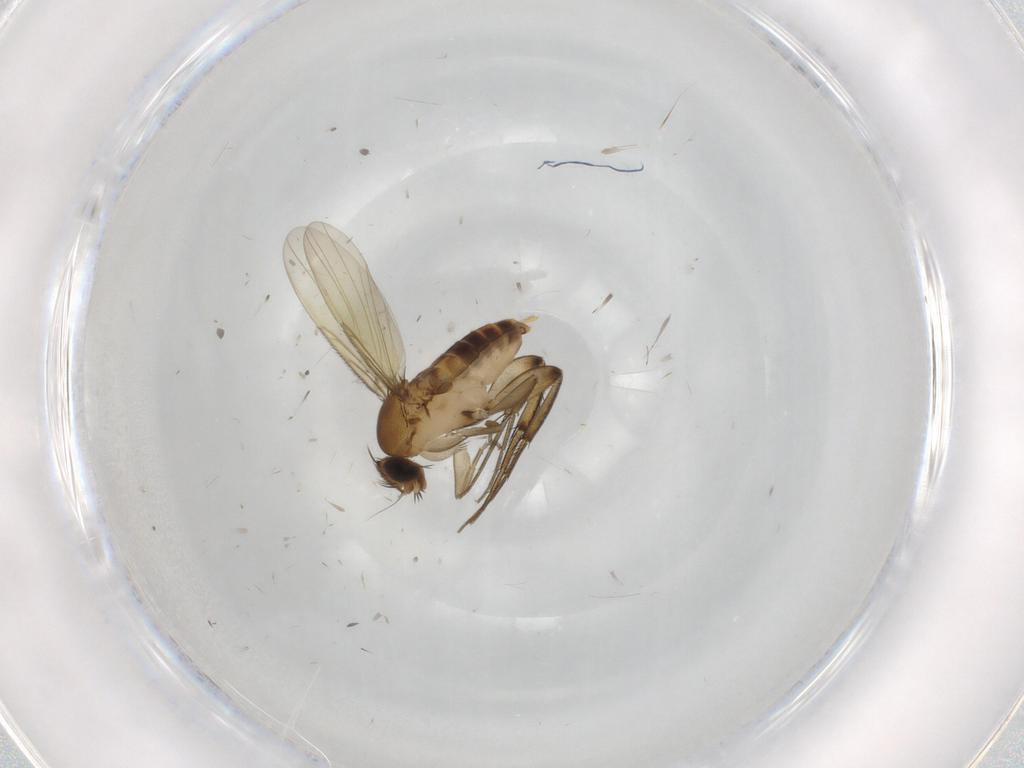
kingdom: Animalia
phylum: Arthropoda
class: Insecta
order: Diptera
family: Phoridae
